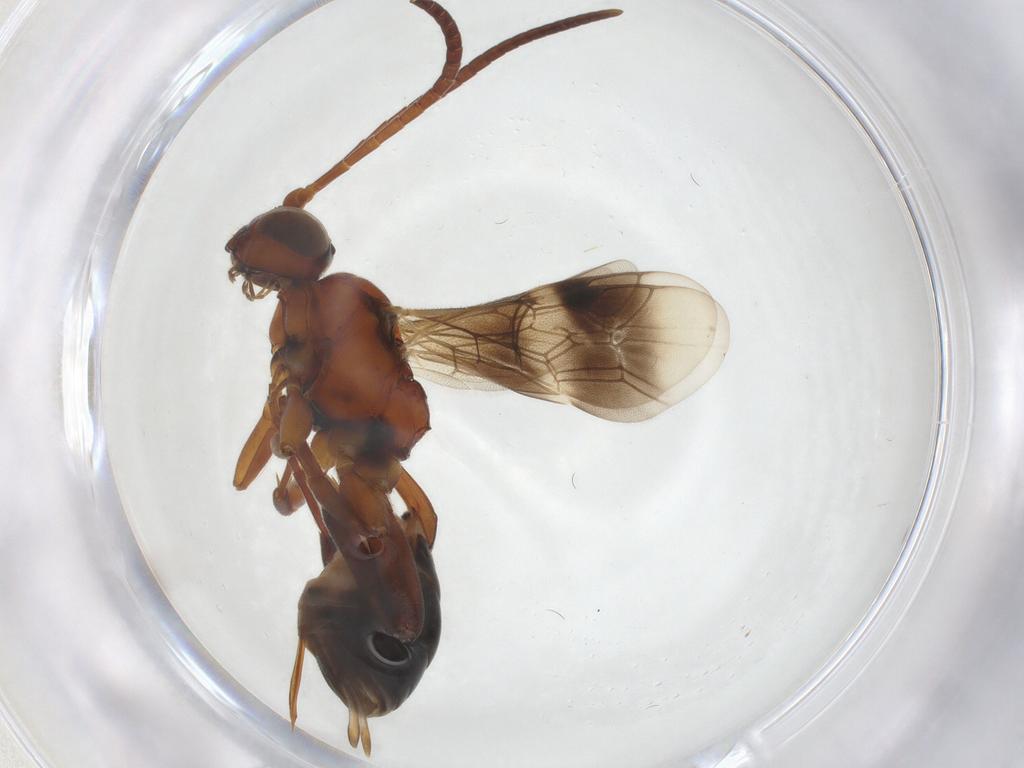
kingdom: Animalia
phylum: Arthropoda
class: Insecta
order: Hymenoptera
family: Ichneumonidae
